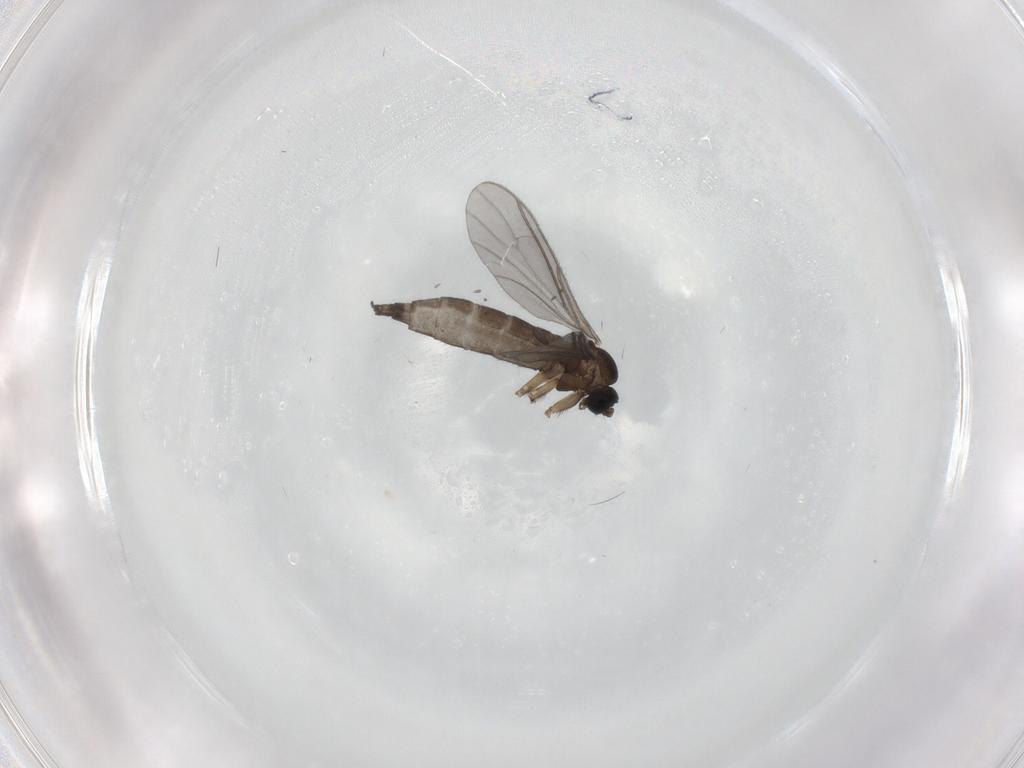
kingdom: Animalia
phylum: Arthropoda
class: Insecta
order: Diptera
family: Sciaridae
